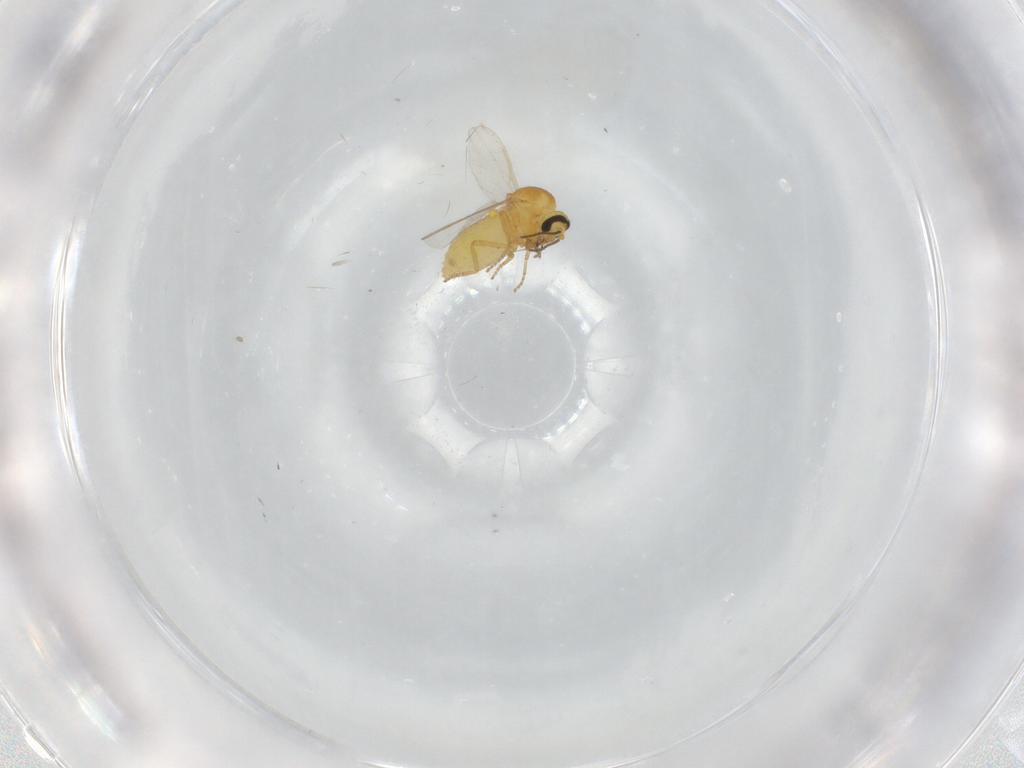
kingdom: Animalia
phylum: Arthropoda
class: Insecta
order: Diptera
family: Ceratopogonidae
